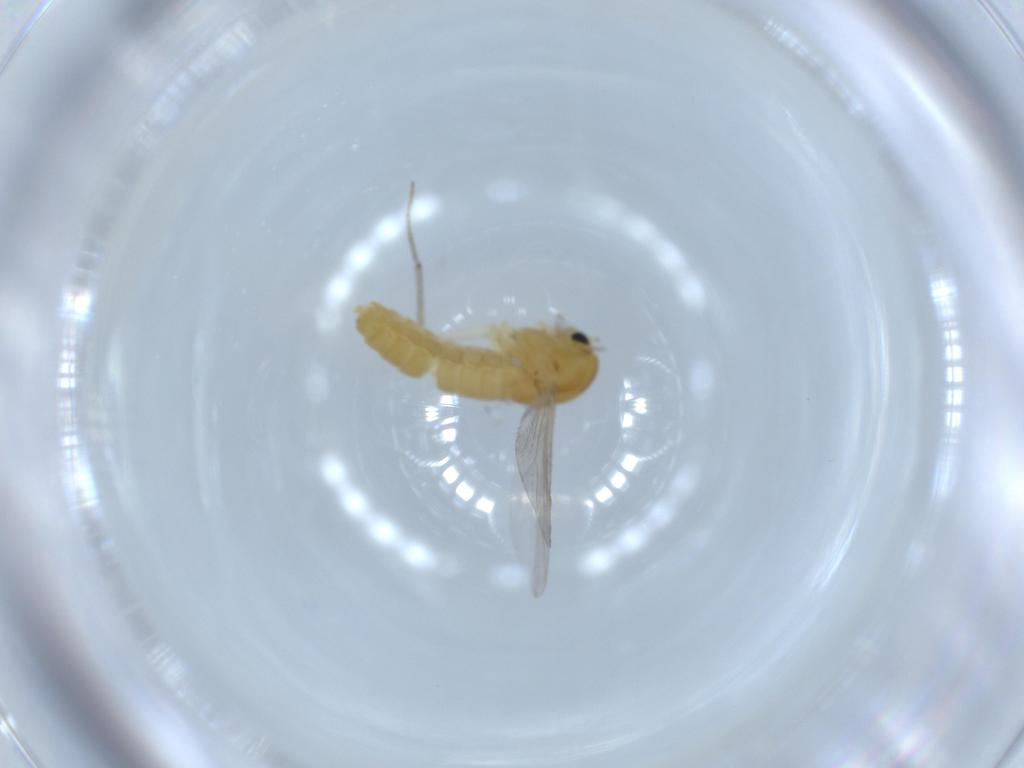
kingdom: Animalia
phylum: Arthropoda
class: Insecta
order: Diptera
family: Chironomidae
